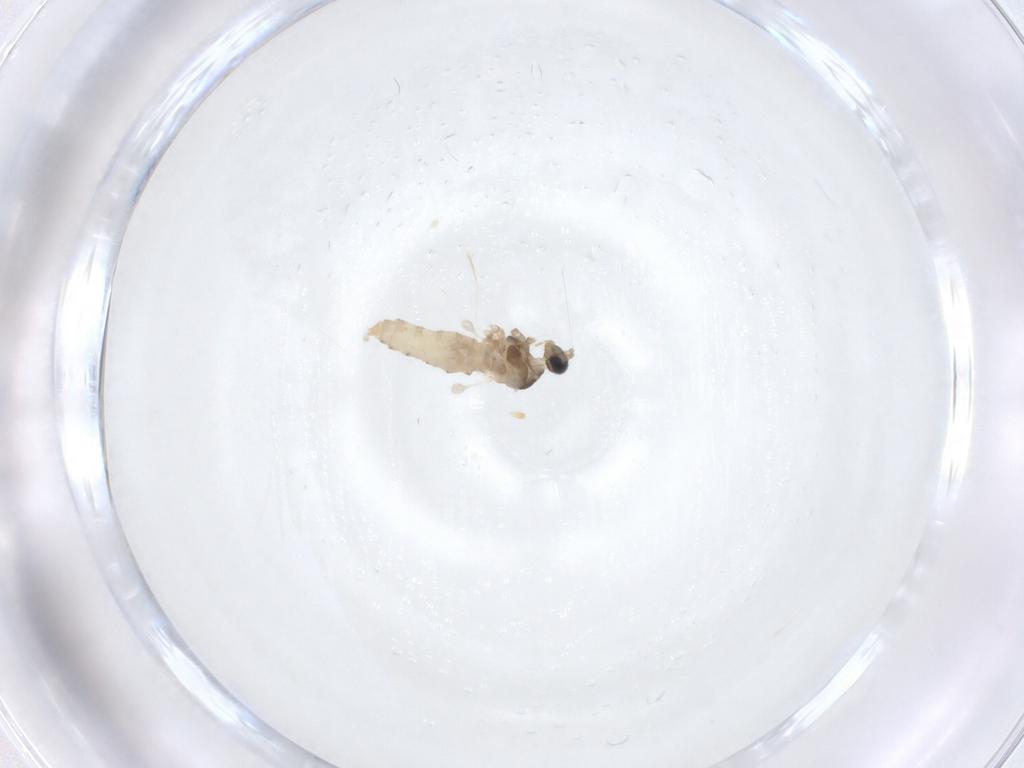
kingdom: Animalia
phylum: Arthropoda
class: Insecta
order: Diptera
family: Cecidomyiidae
